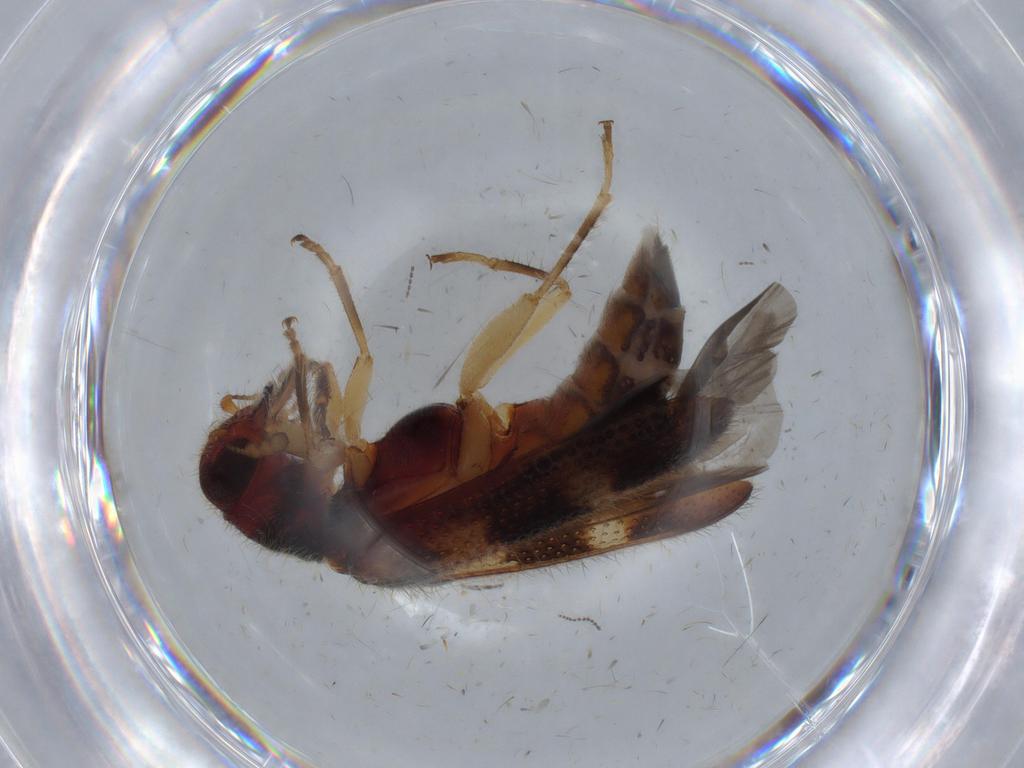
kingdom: Animalia
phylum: Arthropoda
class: Insecta
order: Coleoptera
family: Cleridae
